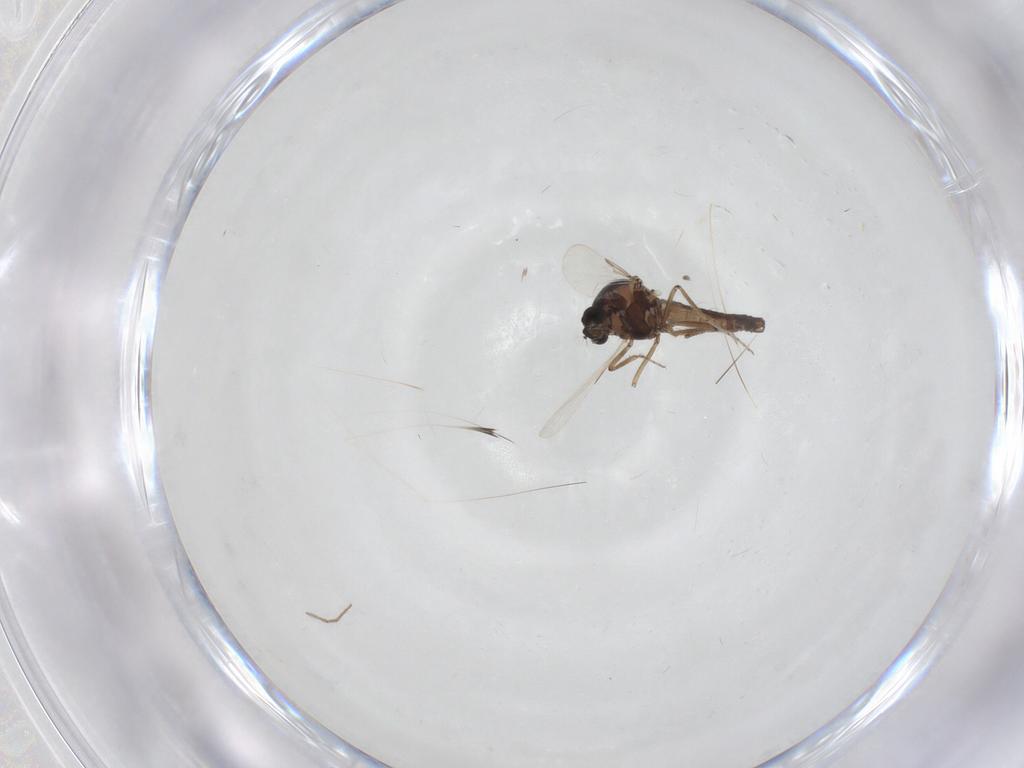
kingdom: Animalia
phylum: Arthropoda
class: Insecta
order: Diptera
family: Ceratopogonidae
